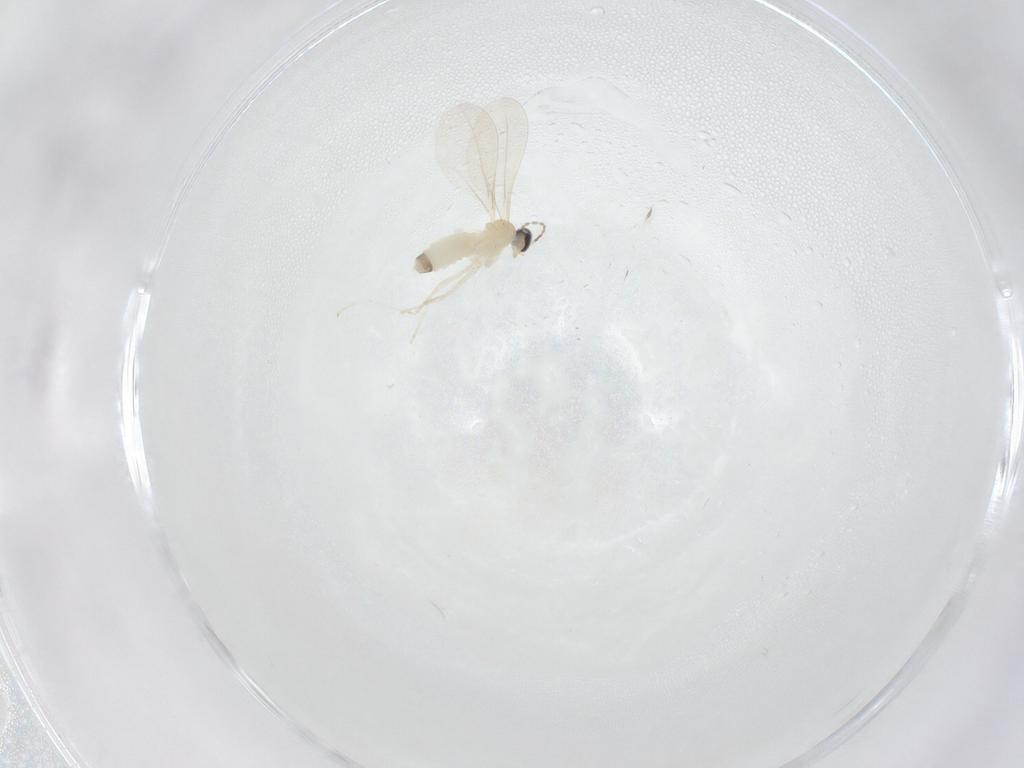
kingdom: Animalia
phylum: Arthropoda
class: Insecta
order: Diptera
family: Cecidomyiidae
